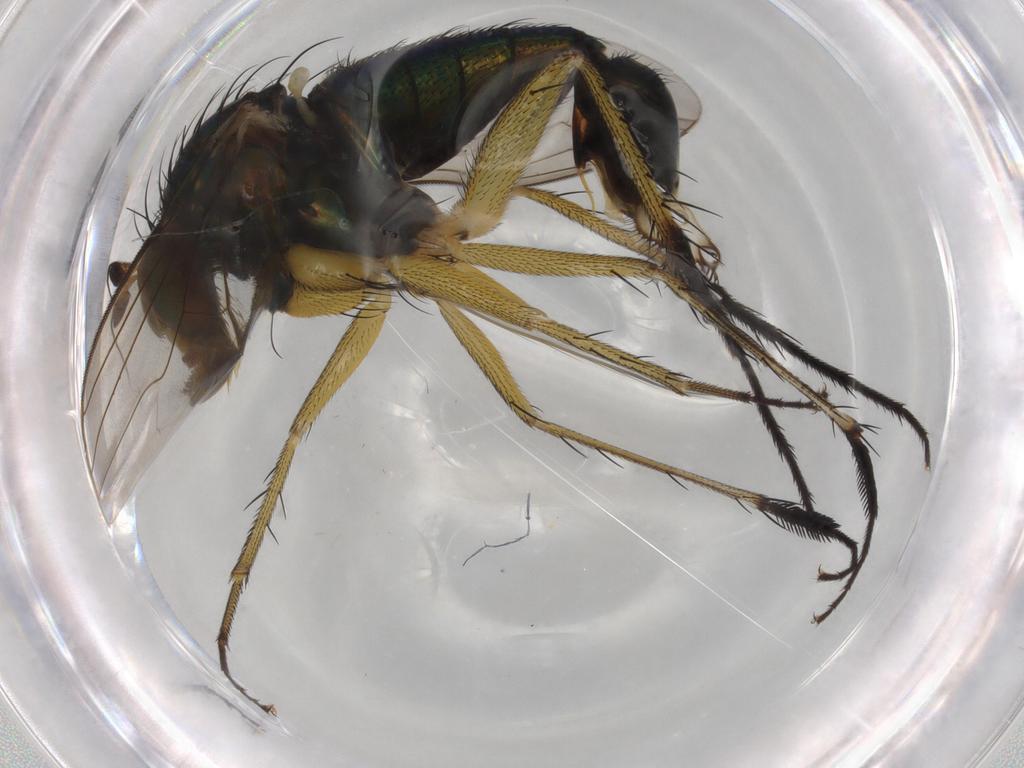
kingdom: Animalia
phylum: Arthropoda
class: Insecta
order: Diptera
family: Dolichopodidae
